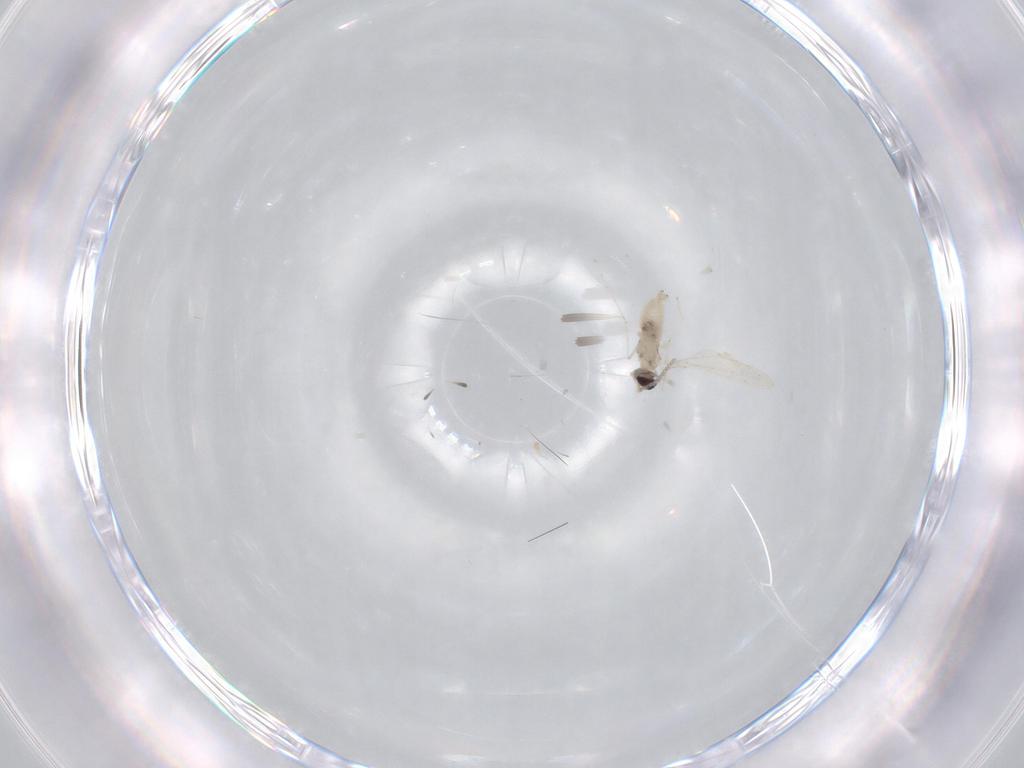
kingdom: Animalia
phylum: Arthropoda
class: Insecta
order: Diptera
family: Cecidomyiidae
